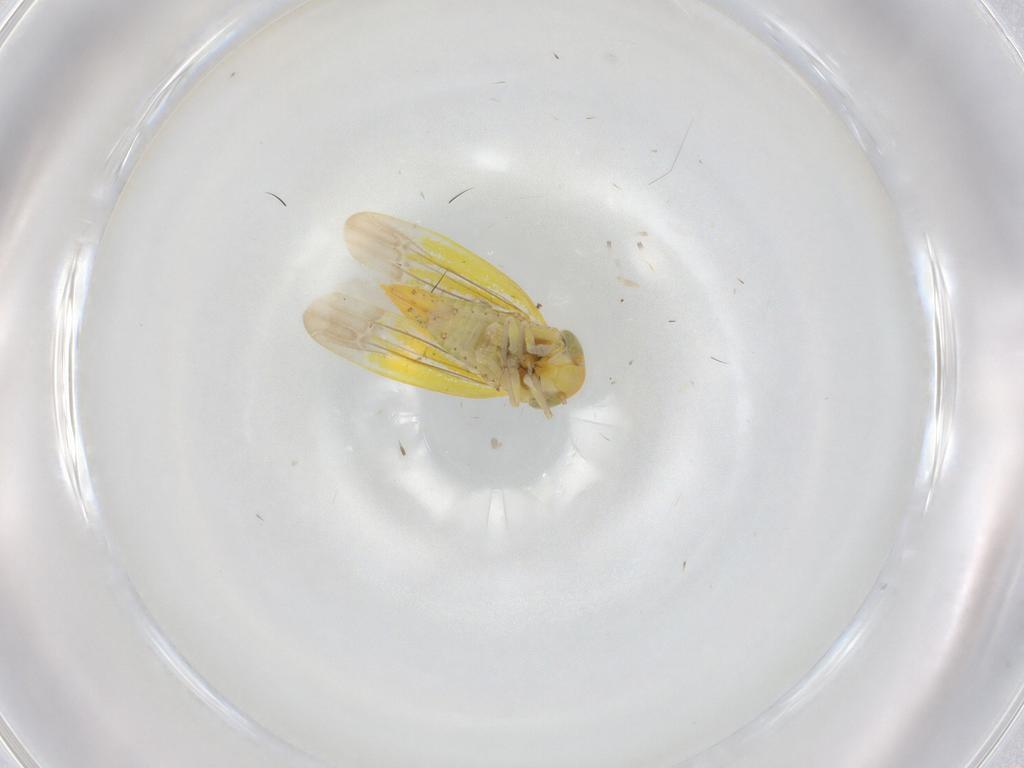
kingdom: Animalia
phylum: Arthropoda
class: Insecta
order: Hemiptera
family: Cicadellidae
